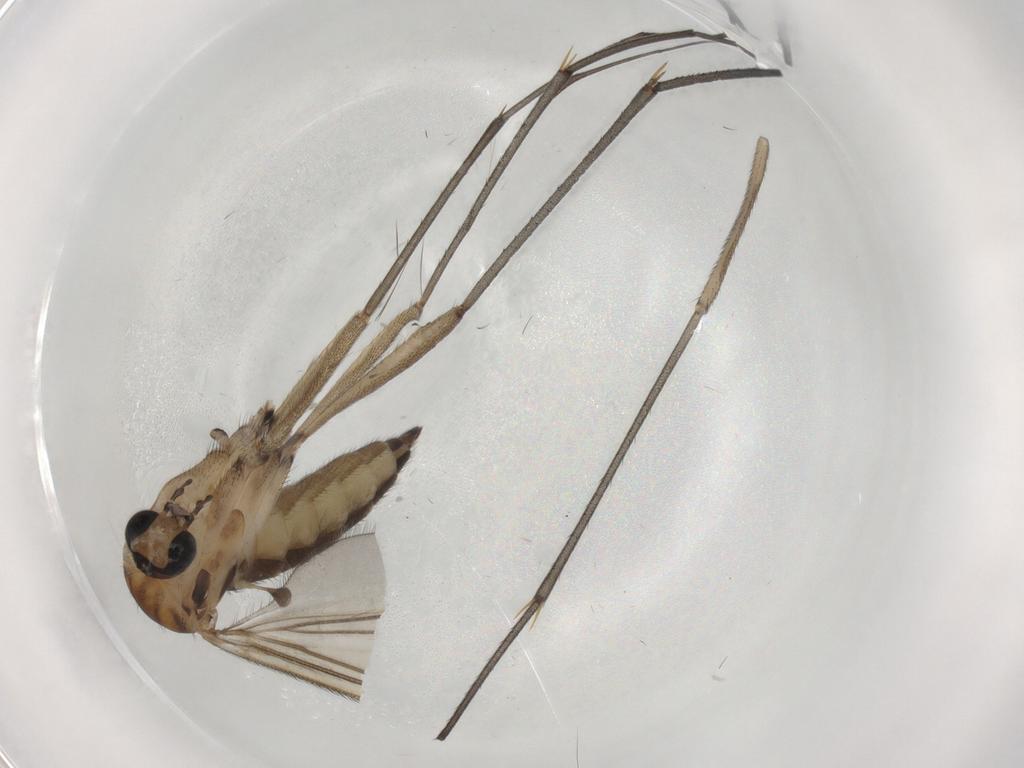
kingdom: Animalia
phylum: Arthropoda
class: Insecta
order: Diptera
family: Sciaridae
